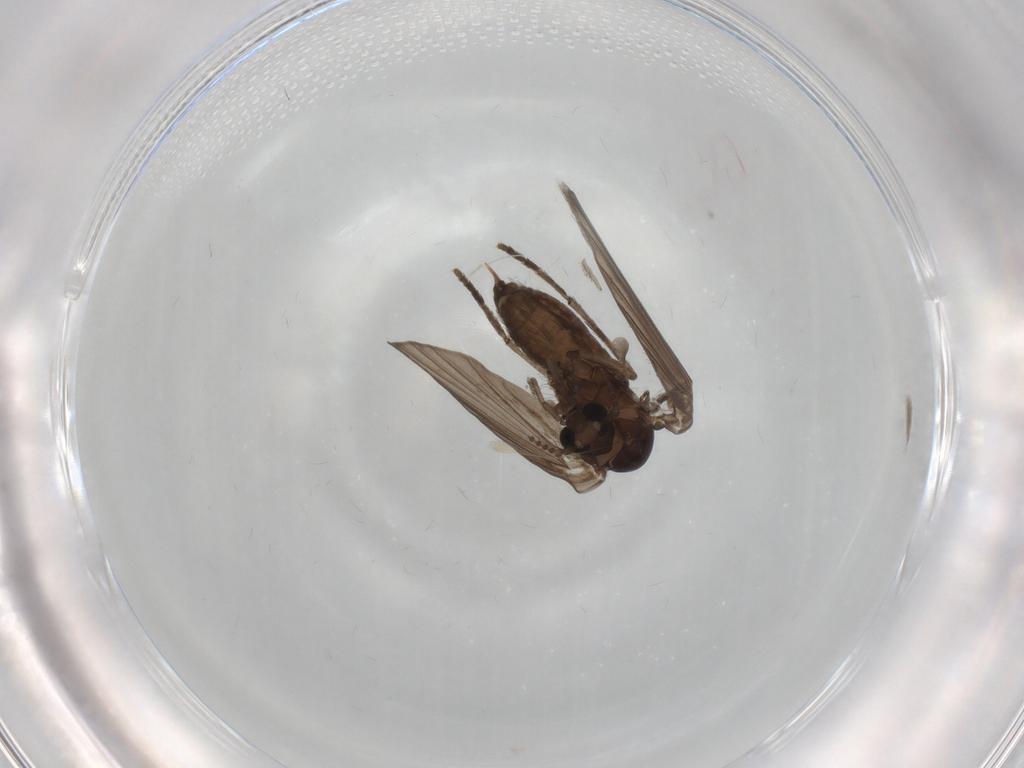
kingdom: Animalia
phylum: Arthropoda
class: Insecta
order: Diptera
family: Psychodidae
